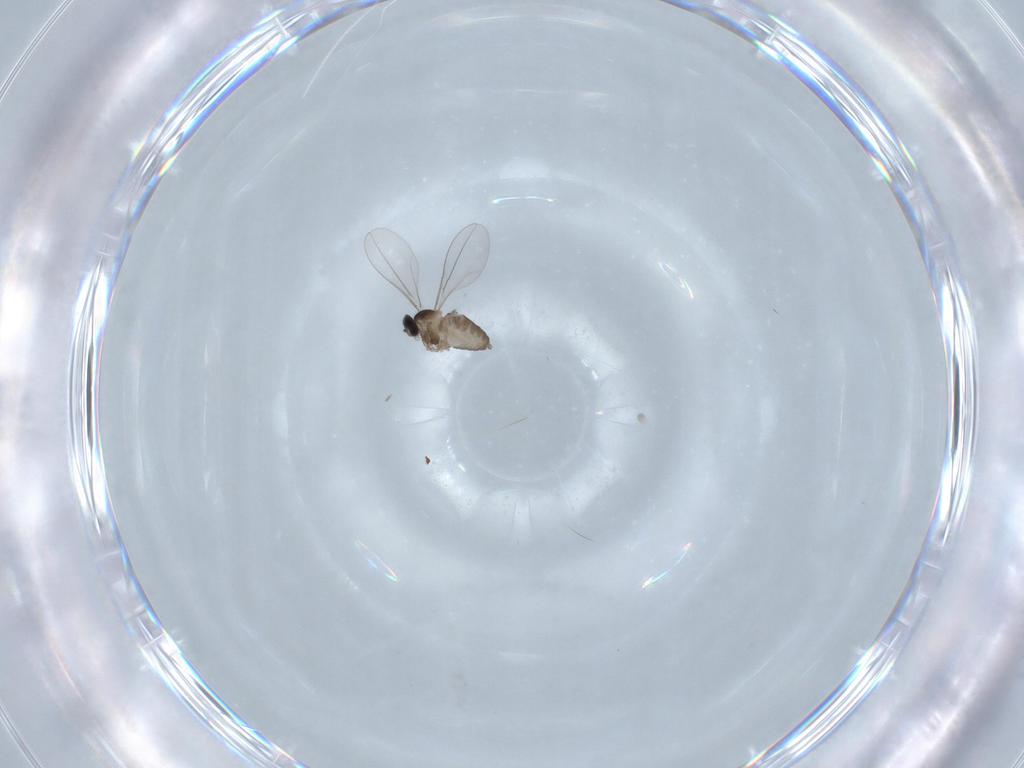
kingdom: Animalia
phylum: Arthropoda
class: Insecta
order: Diptera
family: Cecidomyiidae
